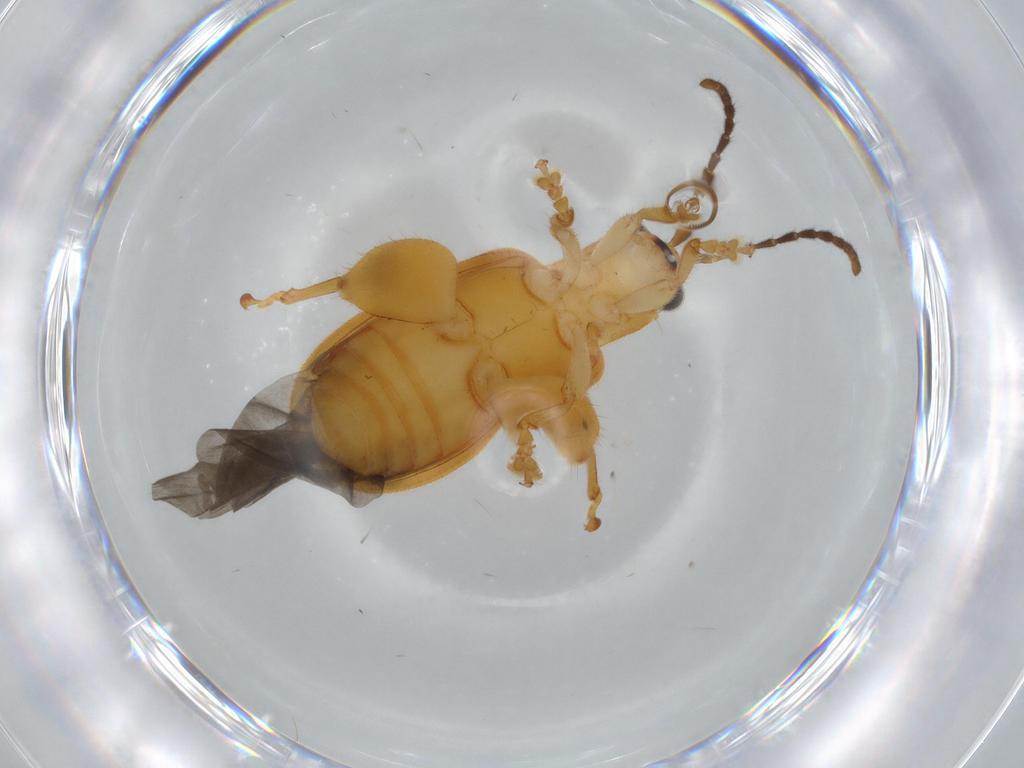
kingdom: Animalia
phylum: Arthropoda
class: Insecta
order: Coleoptera
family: Chrysomelidae
